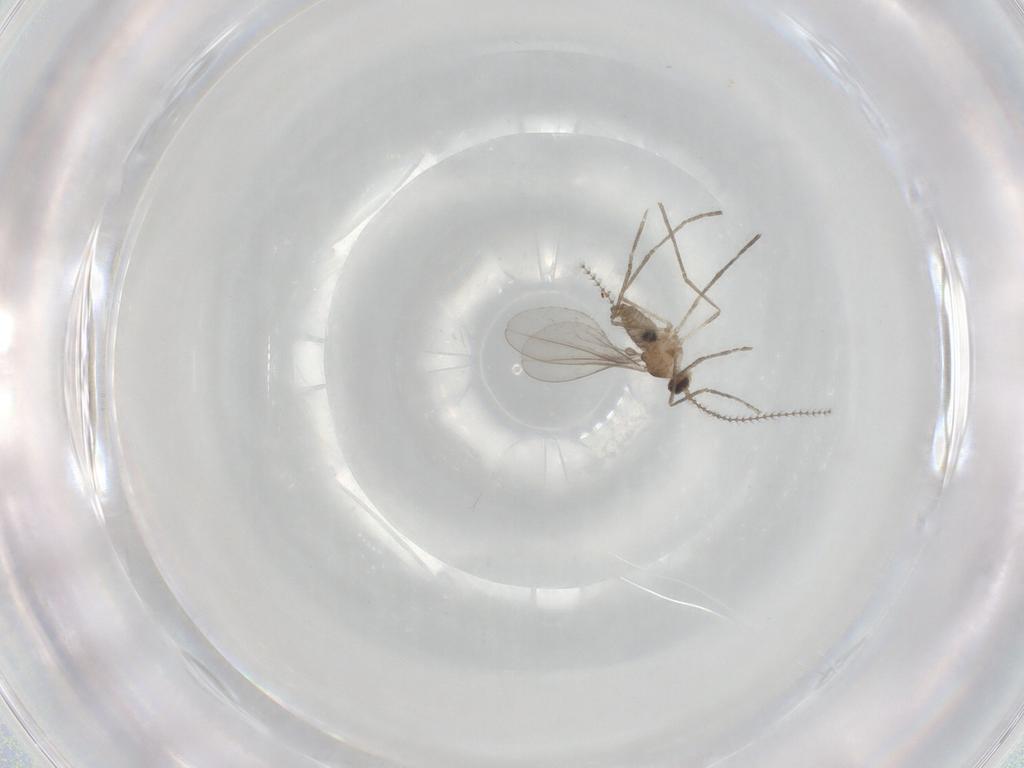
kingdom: Animalia
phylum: Arthropoda
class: Insecta
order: Diptera
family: Cecidomyiidae
